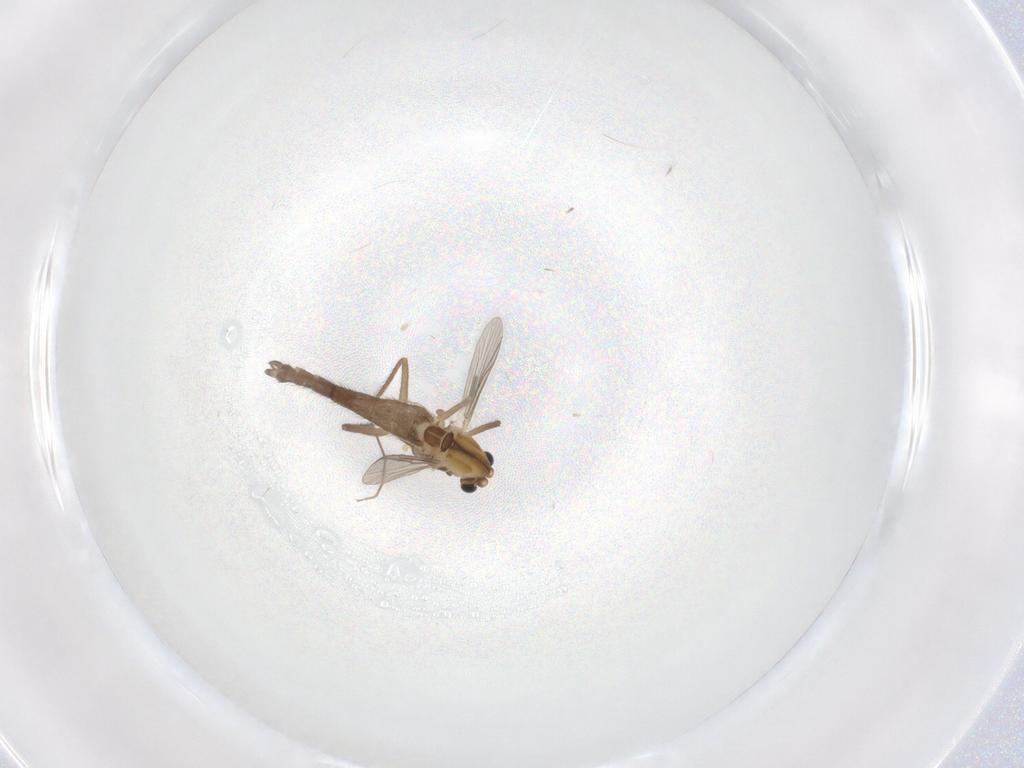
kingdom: Animalia
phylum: Arthropoda
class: Insecta
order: Diptera
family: Chironomidae
